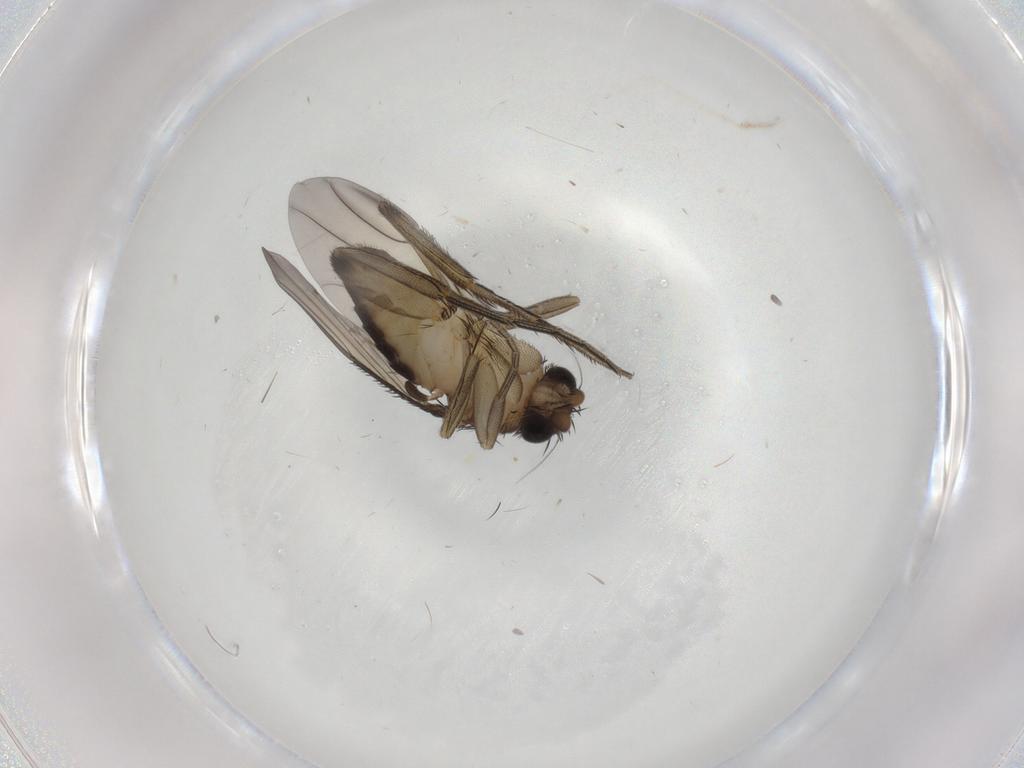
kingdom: Animalia
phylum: Arthropoda
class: Insecta
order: Diptera
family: Phoridae
